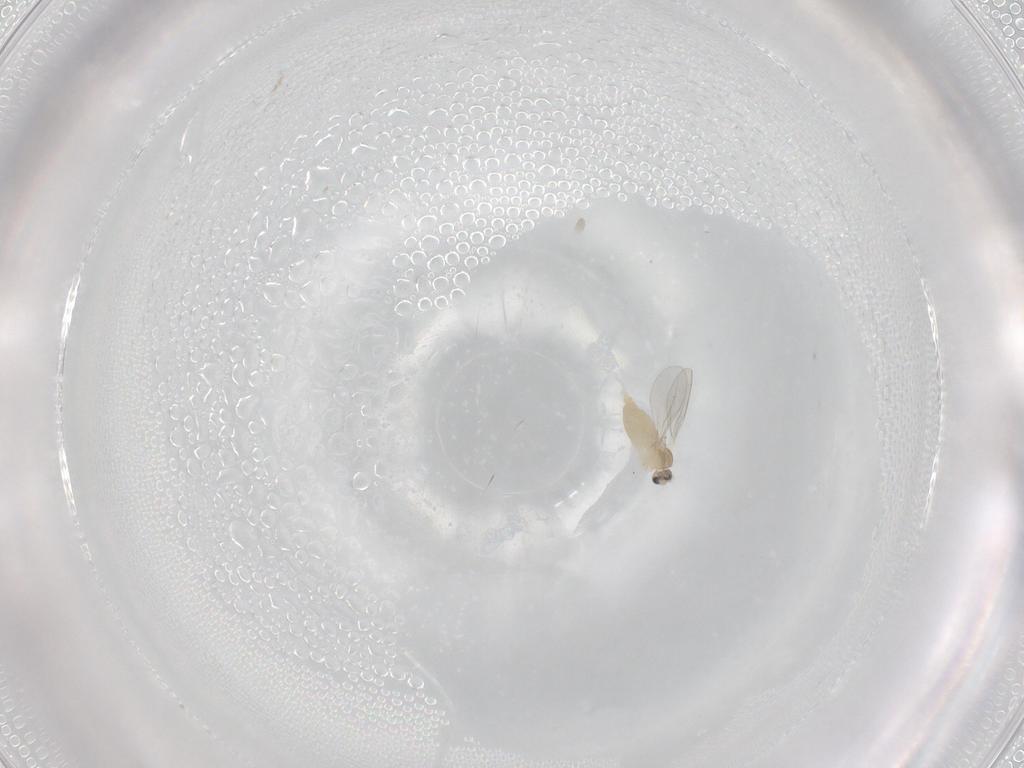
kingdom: Animalia
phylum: Arthropoda
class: Insecta
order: Diptera
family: Cecidomyiidae
